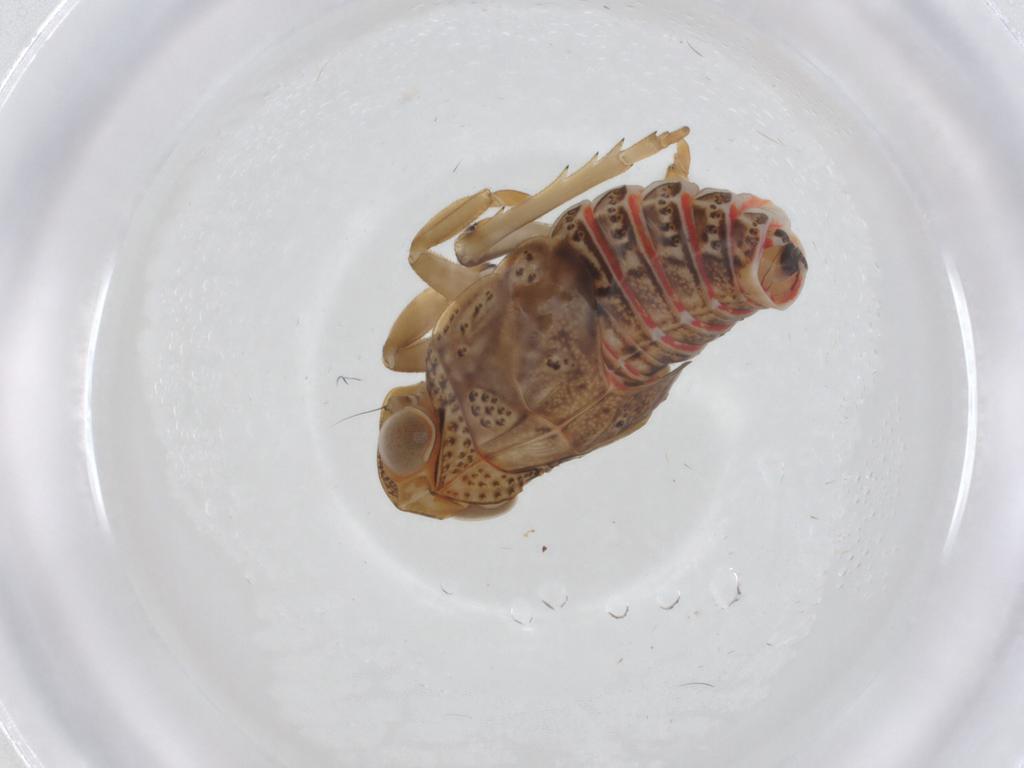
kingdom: Animalia
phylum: Arthropoda
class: Insecta
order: Hemiptera
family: Issidae
